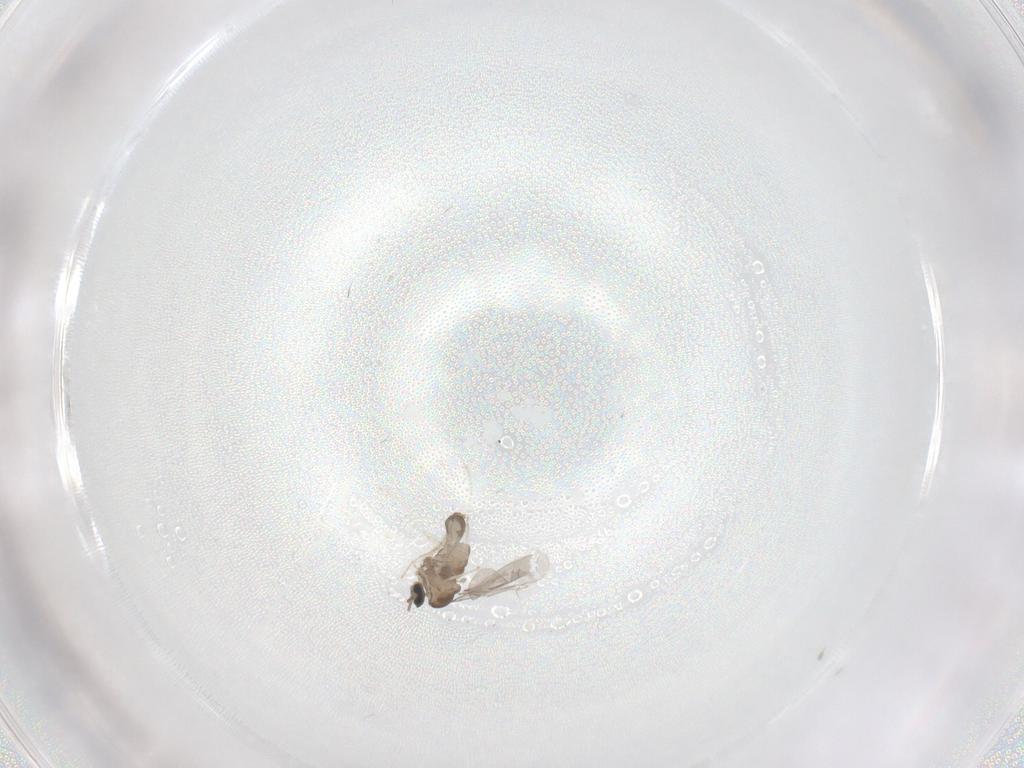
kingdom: Animalia
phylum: Arthropoda
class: Insecta
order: Diptera
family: Cecidomyiidae
